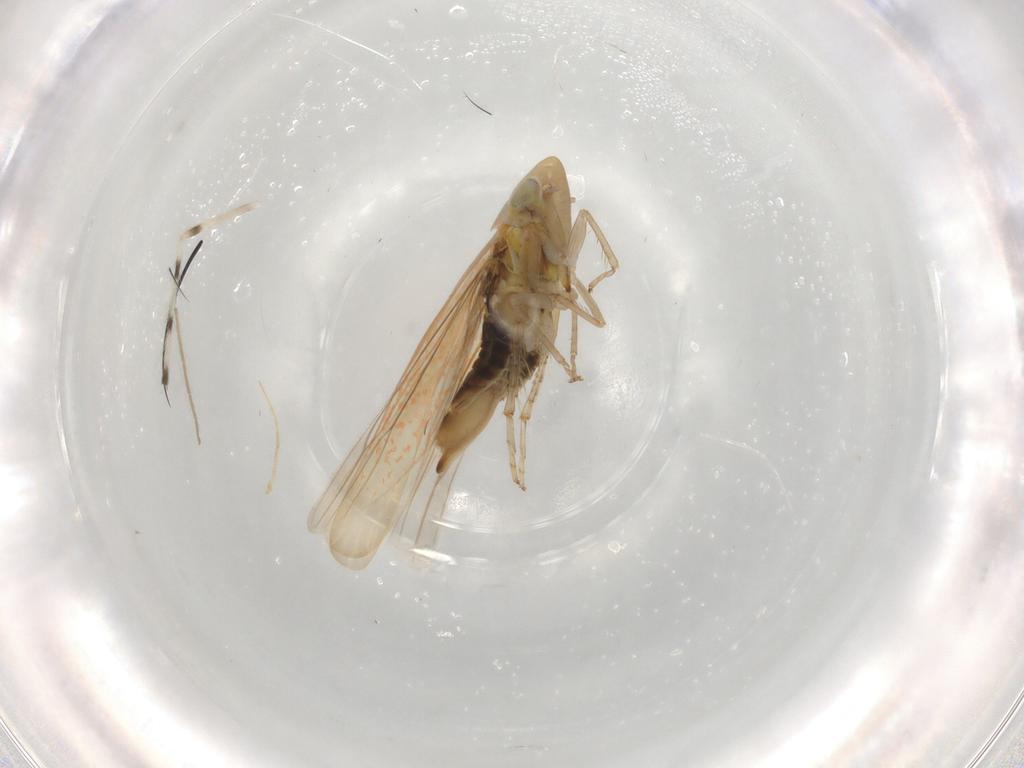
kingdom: Animalia
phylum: Arthropoda
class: Insecta
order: Hemiptera
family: Cicadellidae
